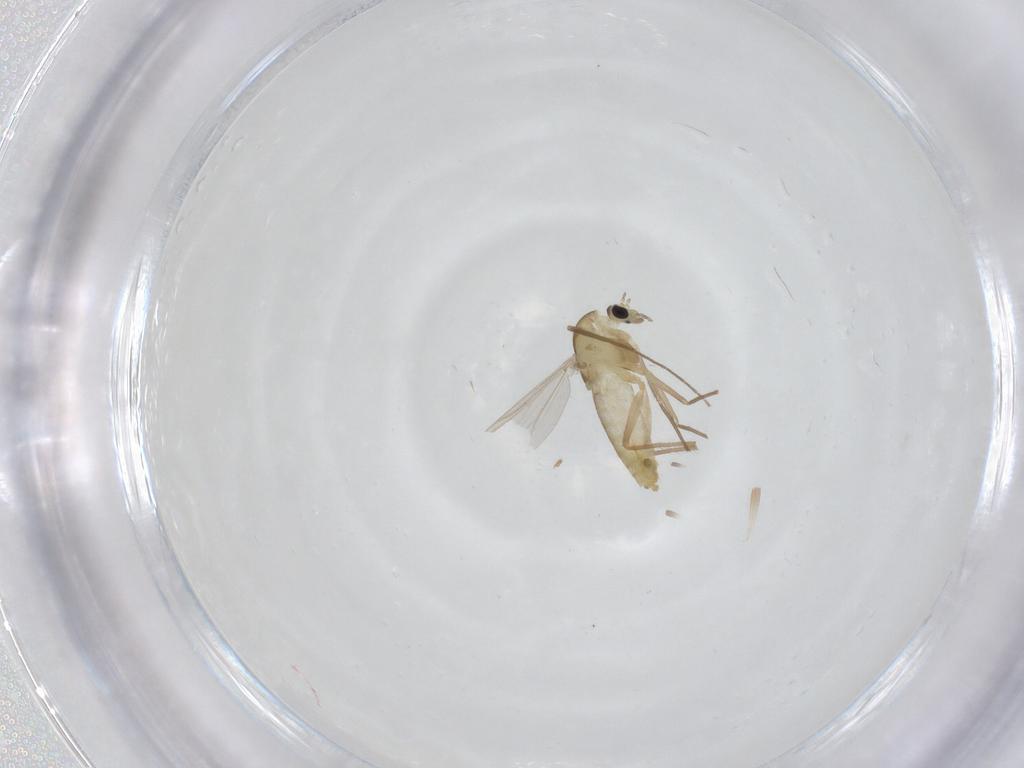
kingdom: Animalia
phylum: Arthropoda
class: Insecta
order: Diptera
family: Chironomidae
